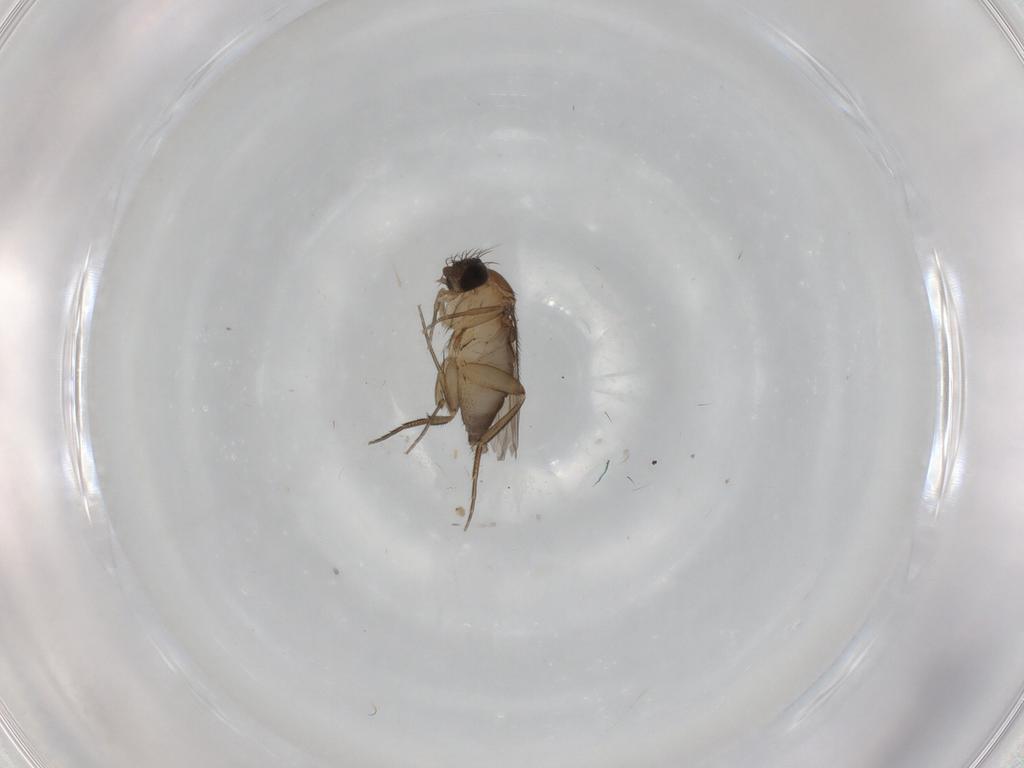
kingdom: Animalia
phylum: Arthropoda
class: Insecta
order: Diptera
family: Phoridae
